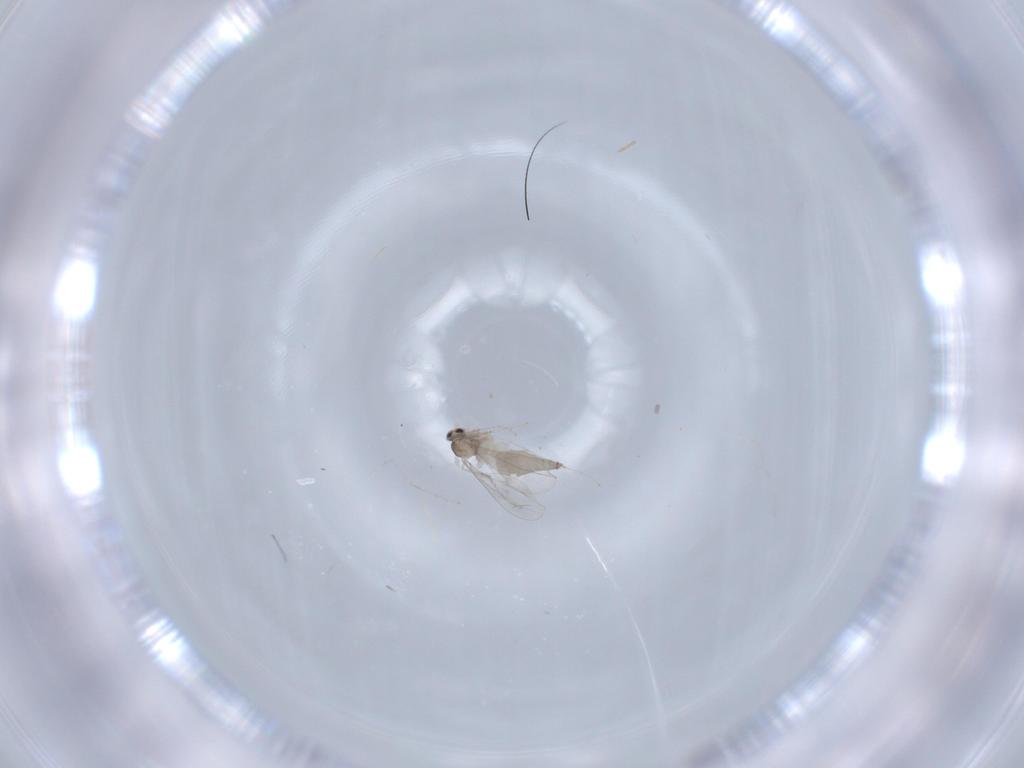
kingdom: Animalia
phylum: Arthropoda
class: Insecta
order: Diptera
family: Cecidomyiidae
